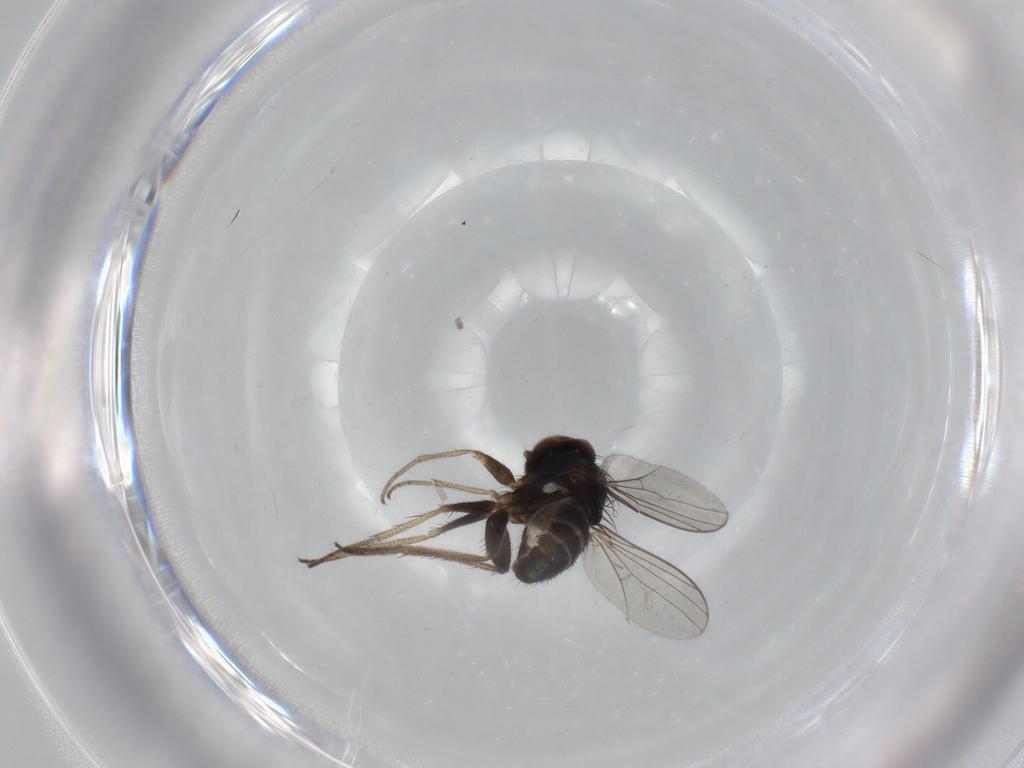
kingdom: Animalia
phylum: Arthropoda
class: Insecta
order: Diptera
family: Dolichopodidae
